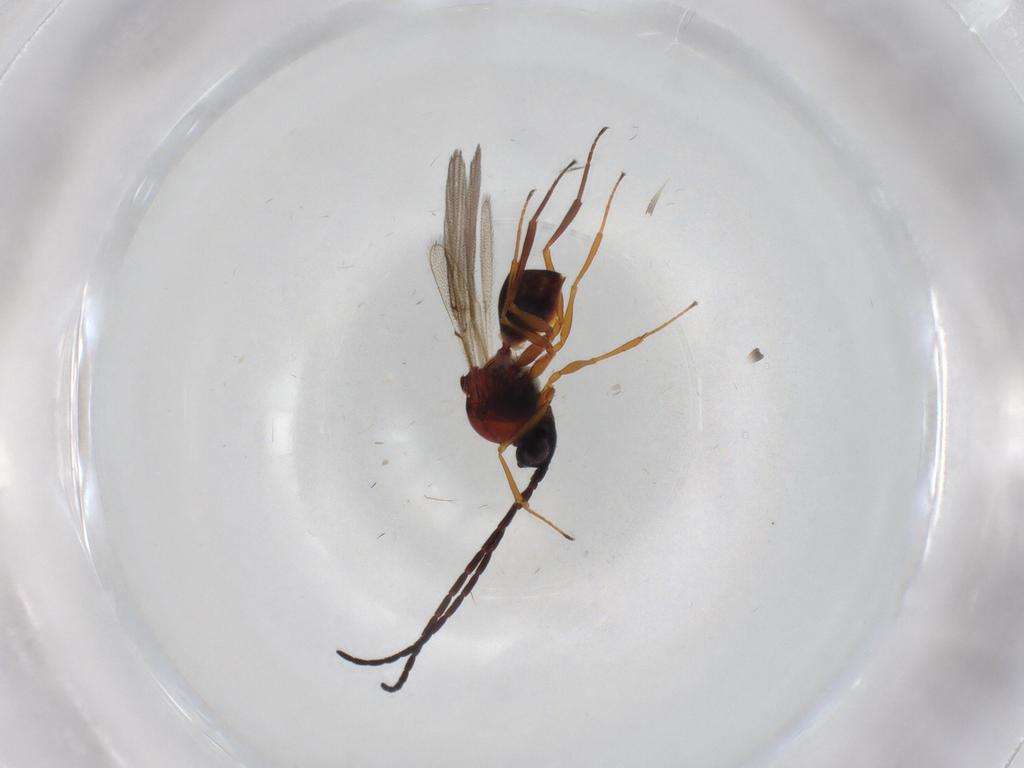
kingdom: Animalia
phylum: Arthropoda
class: Insecta
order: Hymenoptera
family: Figitidae
